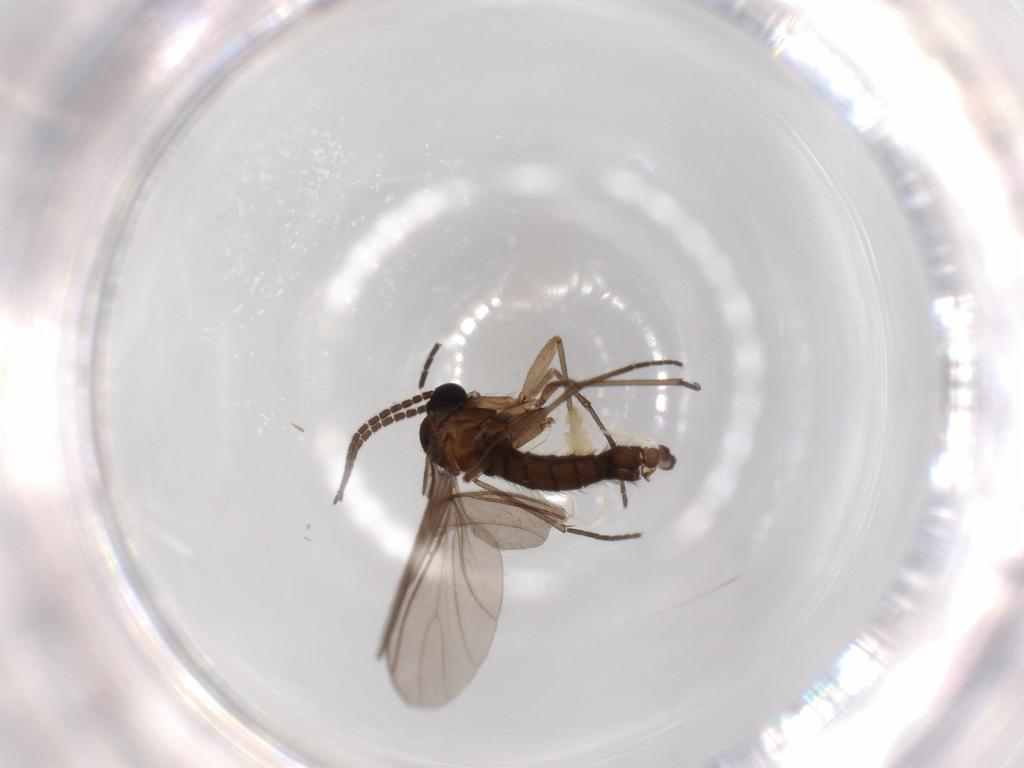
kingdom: Animalia
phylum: Arthropoda
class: Insecta
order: Diptera
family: Sciaridae
